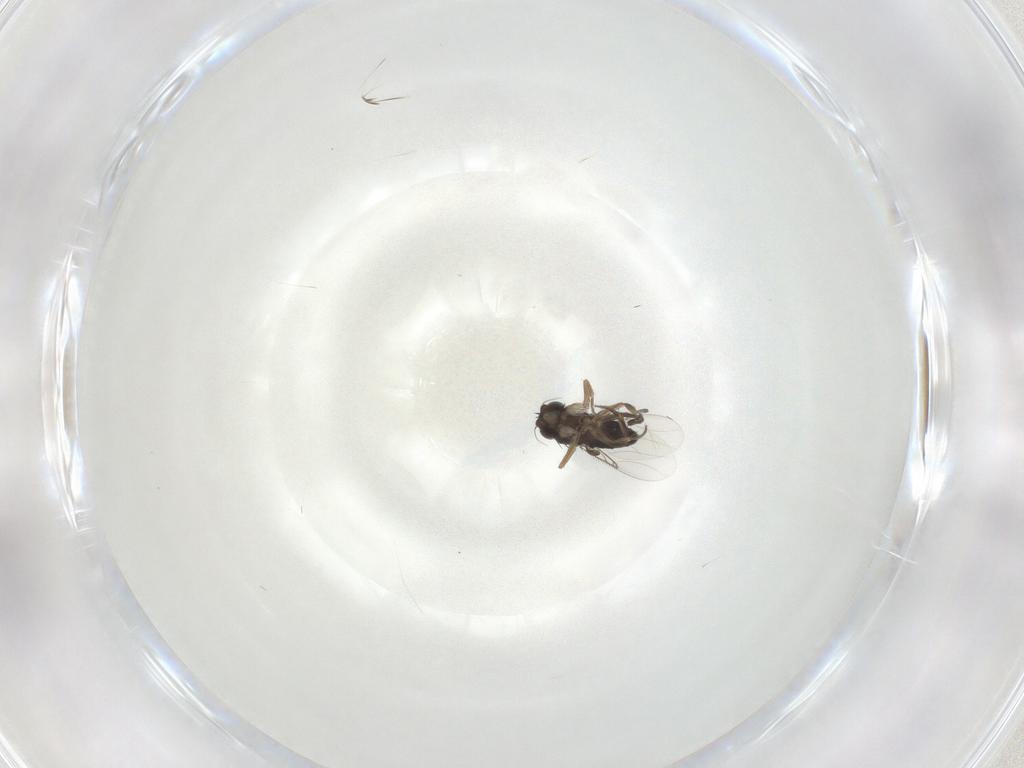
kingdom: Animalia
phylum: Arthropoda
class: Insecta
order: Diptera
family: Phoridae
